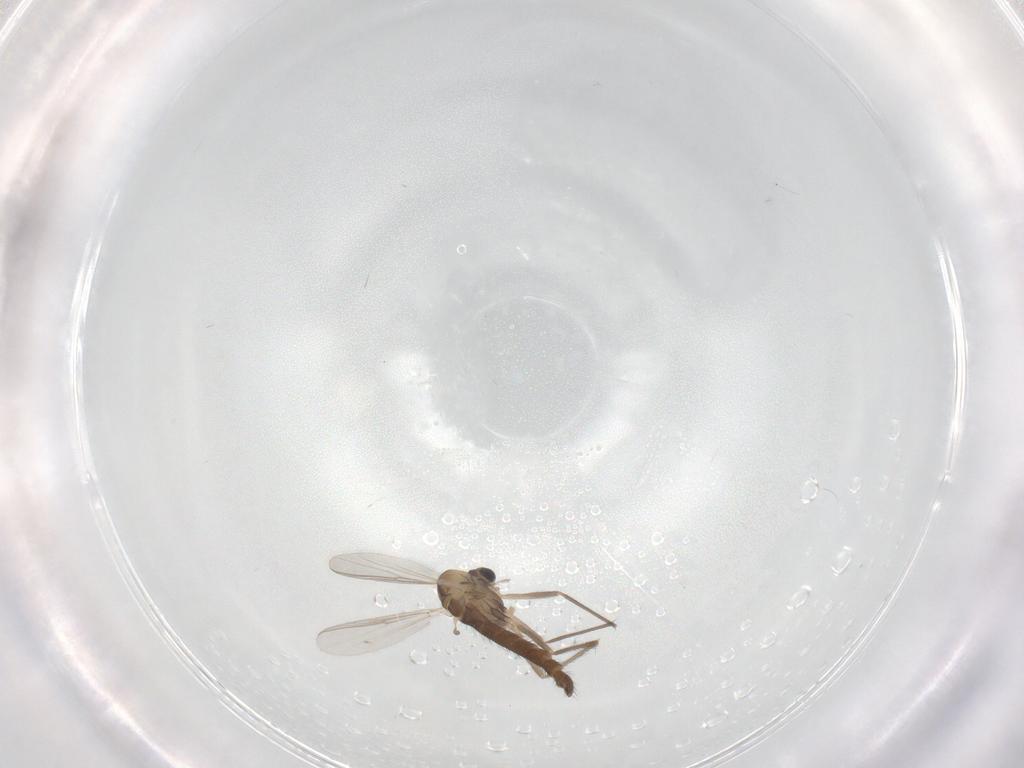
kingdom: Animalia
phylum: Arthropoda
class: Insecta
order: Diptera
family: Chironomidae
